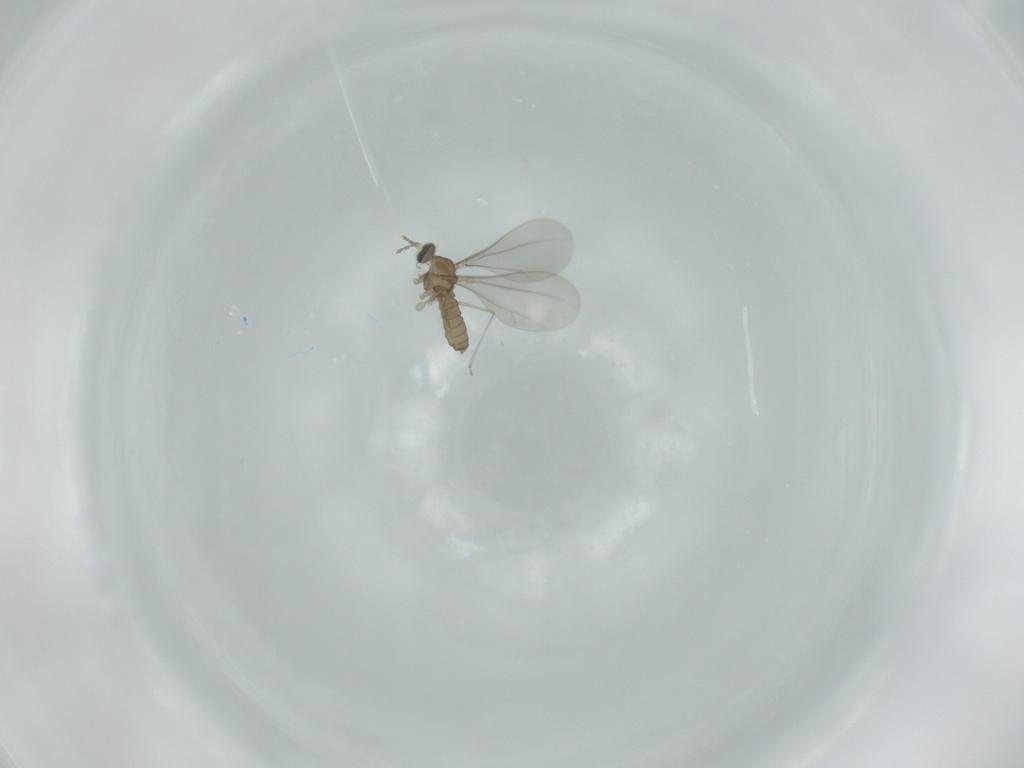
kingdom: Animalia
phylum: Arthropoda
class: Insecta
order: Diptera
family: Cecidomyiidae
